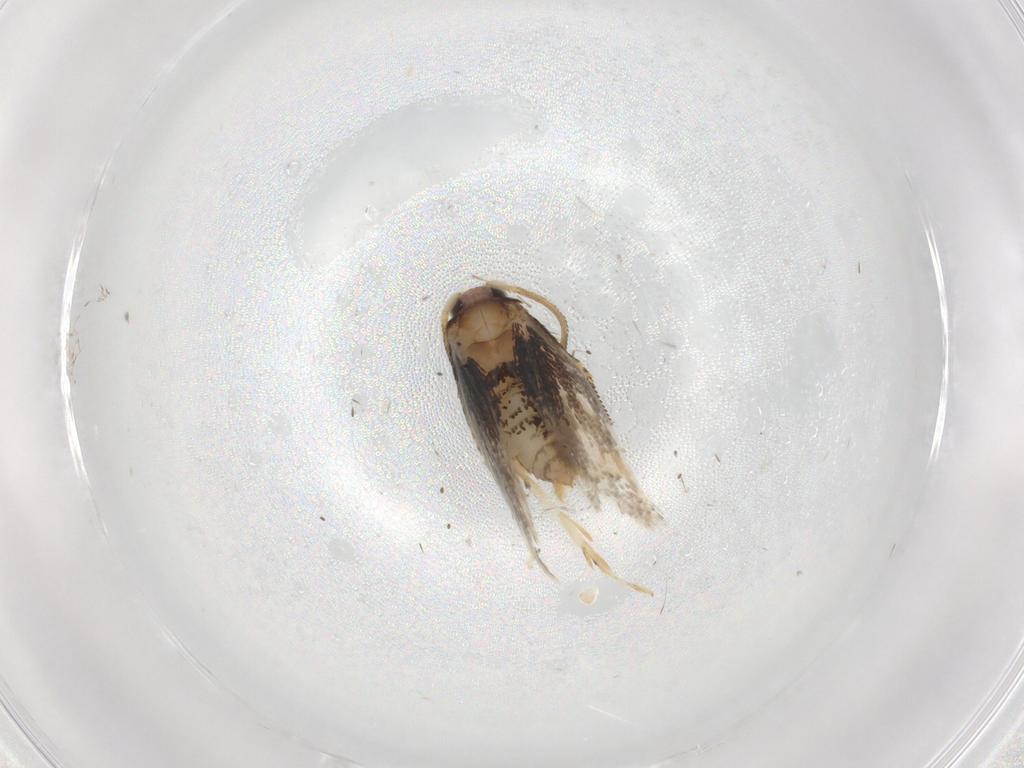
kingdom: Animalia
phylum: Arthropoda
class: Insecta
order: Lepidoptera
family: Nepticulidae
